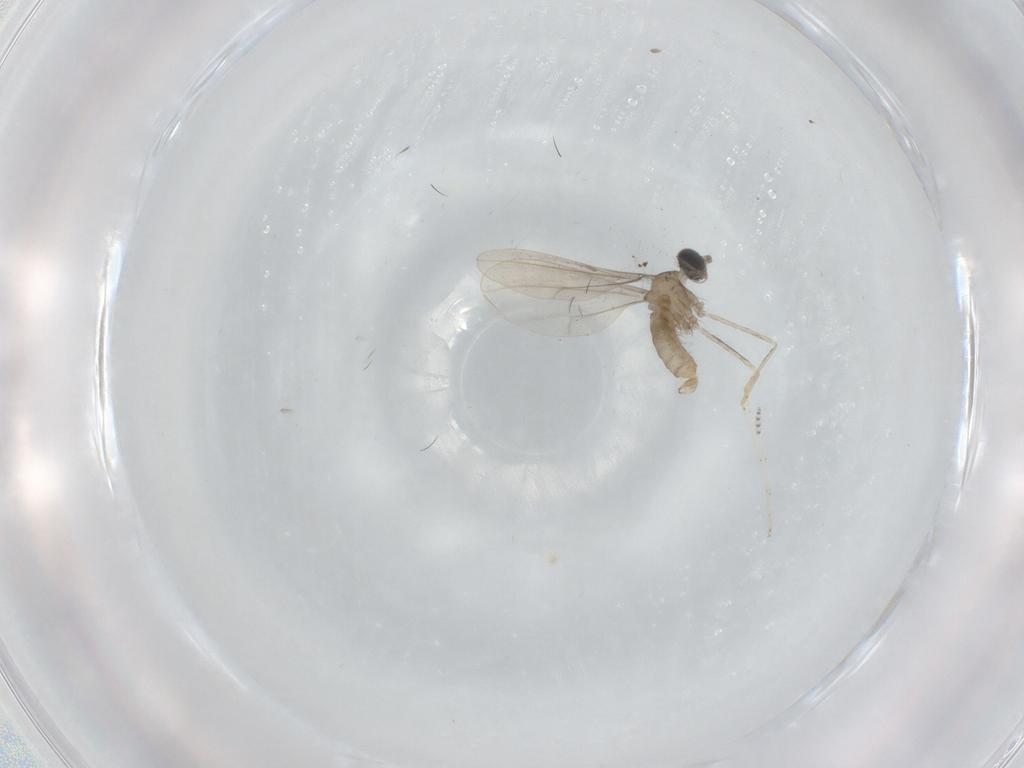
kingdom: Animalia
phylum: Arthropoda
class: Insecta
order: Diptera
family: Cecidomyiidae
